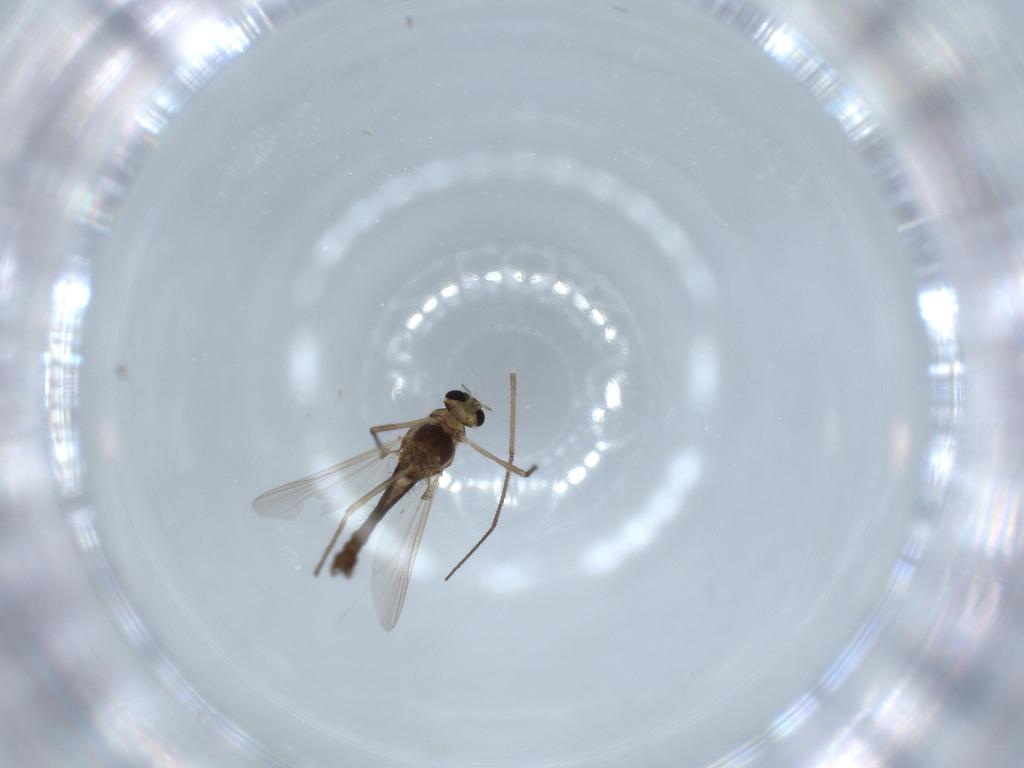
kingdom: Animalia
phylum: Arthropoda
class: Insecta
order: Diptera
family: Chironomidae
